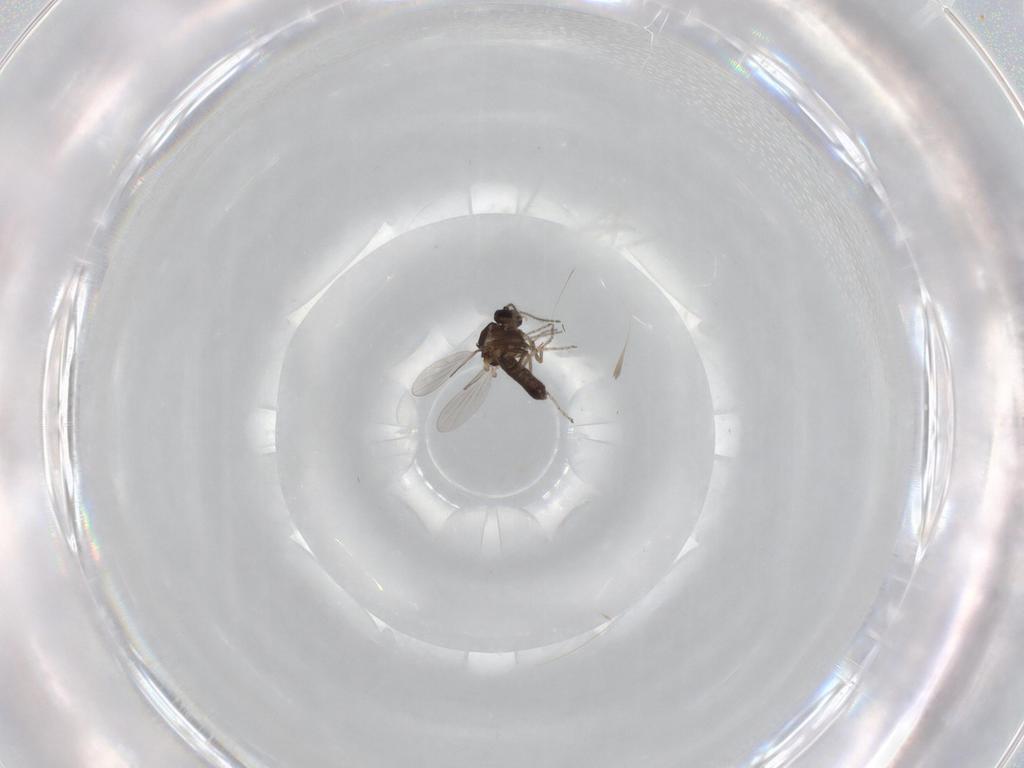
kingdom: Animalia
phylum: Arthropoda
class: Insecta
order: Diptera
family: Ceratopogonidae
